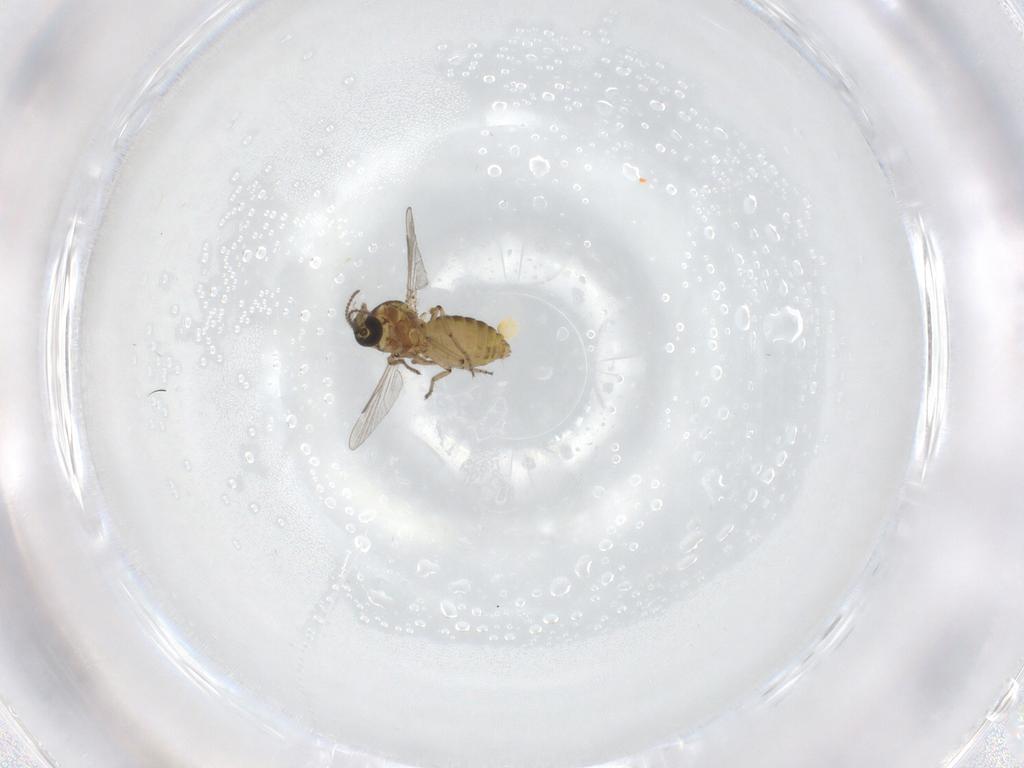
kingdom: Animalia
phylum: Arthropoda
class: Insecta
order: Diptera
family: Ceratopogonidae
